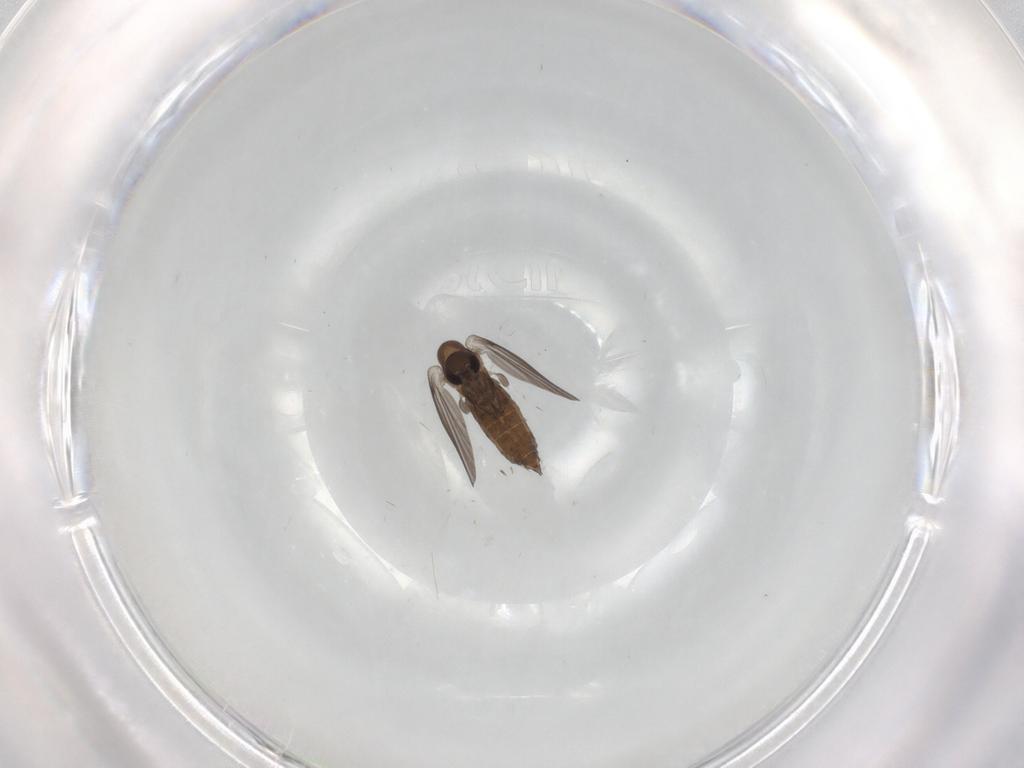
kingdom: Animalia
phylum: Arthropoda
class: Insecta
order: Diptera
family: Chironomidae
